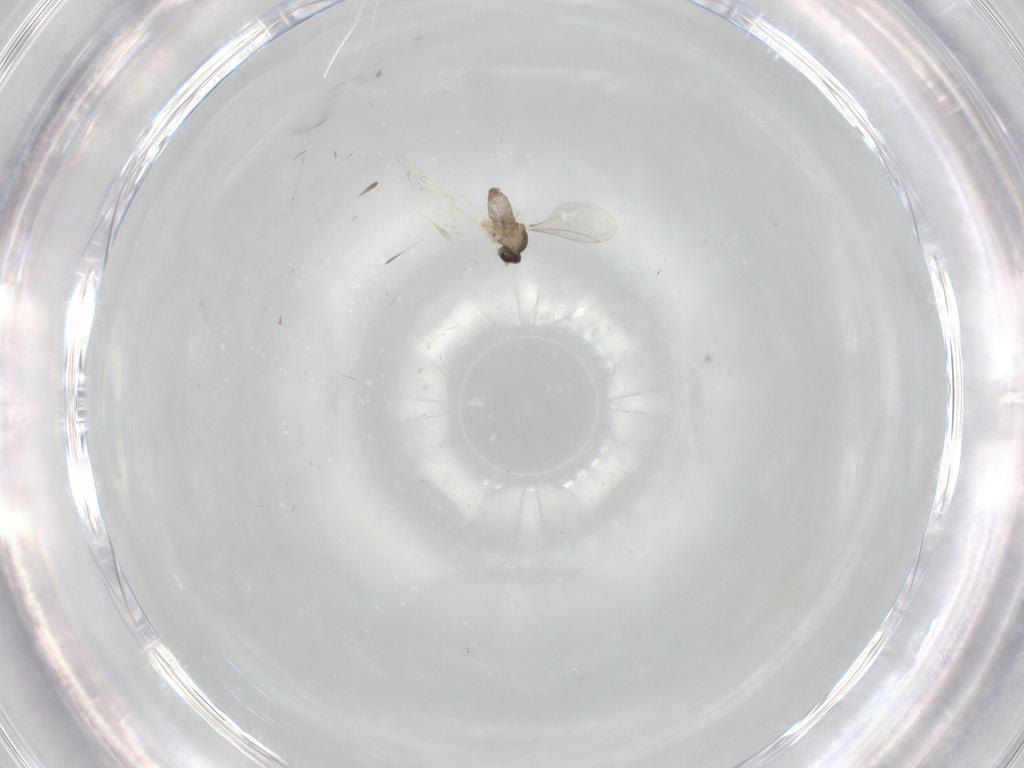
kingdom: Animalia
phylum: Arthropoda
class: Insecta
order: Diptera
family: Cecidomyiidae
